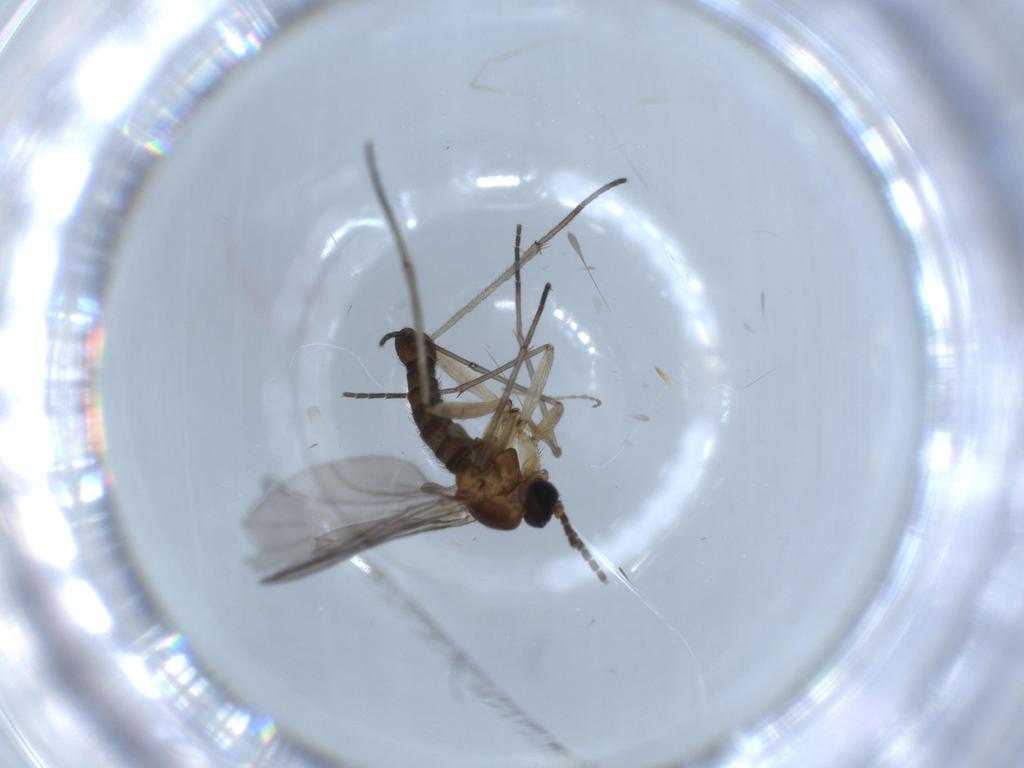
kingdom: Animalia
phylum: Arthropoda
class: Insecta
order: Diptera
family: Sciaridae
